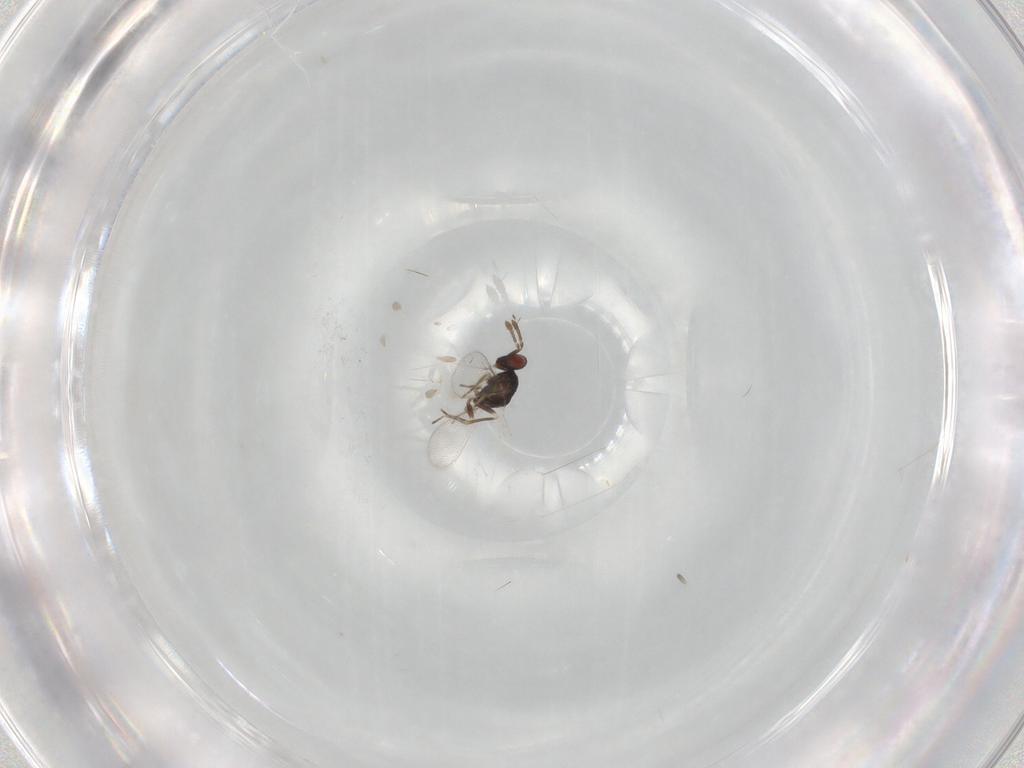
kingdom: Animalia
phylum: Arthropoda
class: Insecta
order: Hymenoptera
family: Eulophidae
